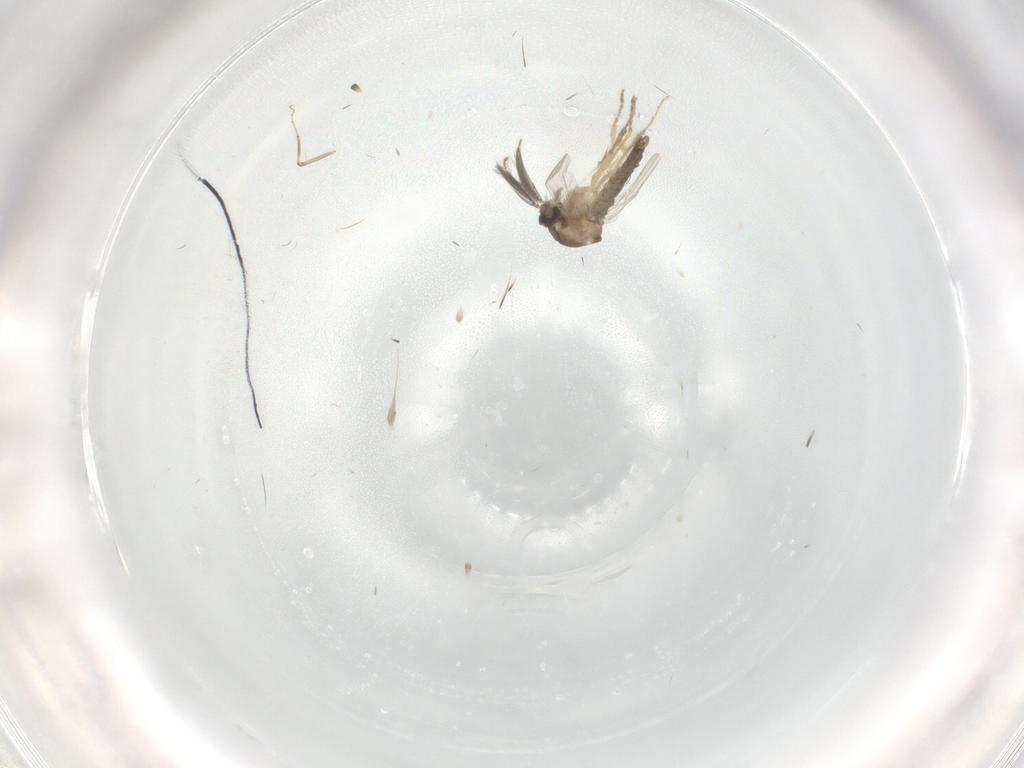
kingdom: Animalia
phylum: Arthropoda
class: Insecta
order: Diptera
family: Ceratopogonidae
